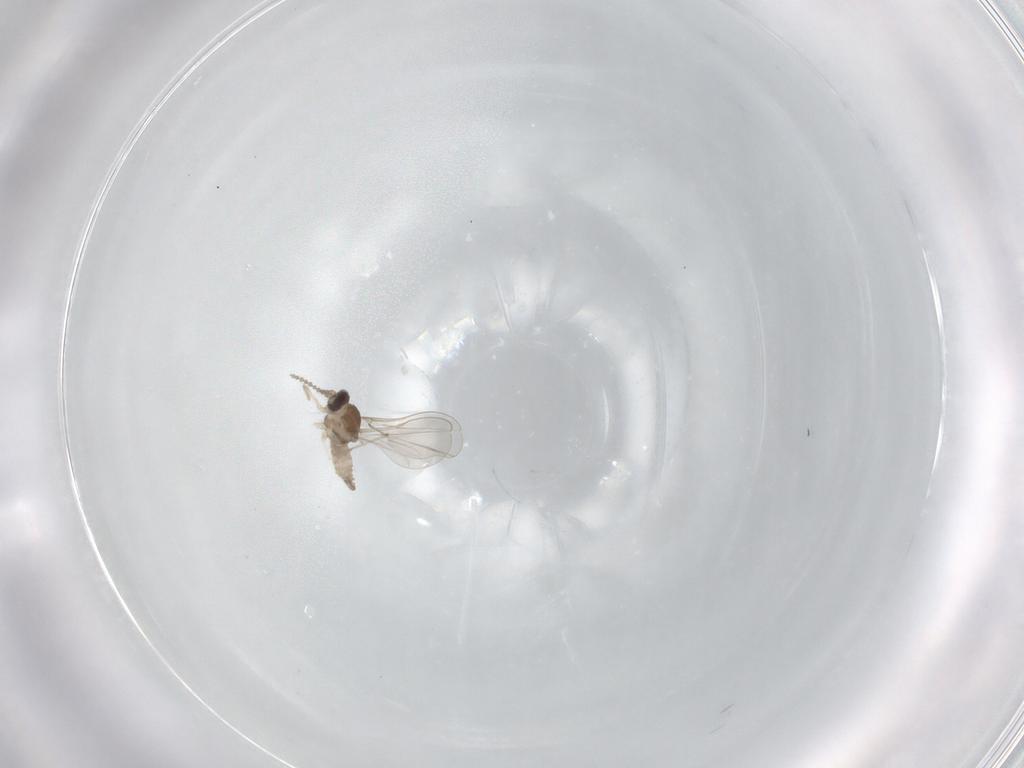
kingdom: Animalia
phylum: Arthropoda
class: Insecta
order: Diptera
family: Cecidomyiidae
